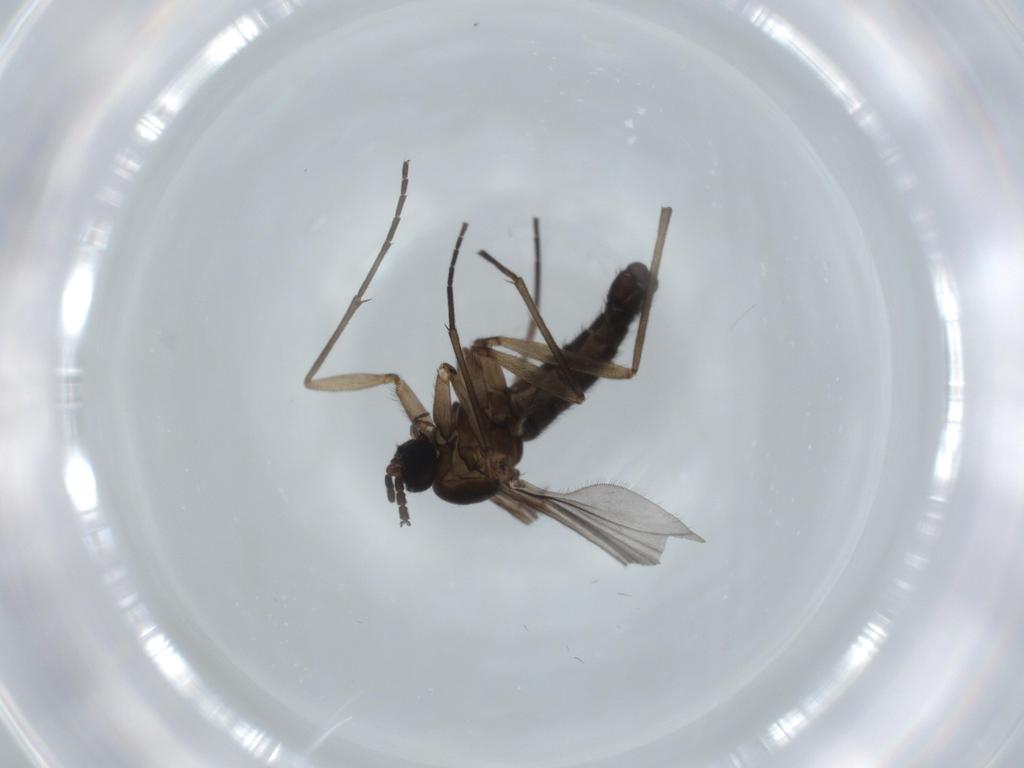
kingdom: Animalia
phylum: Arthropoda
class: Insecta
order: Diptera
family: Sciaridae
